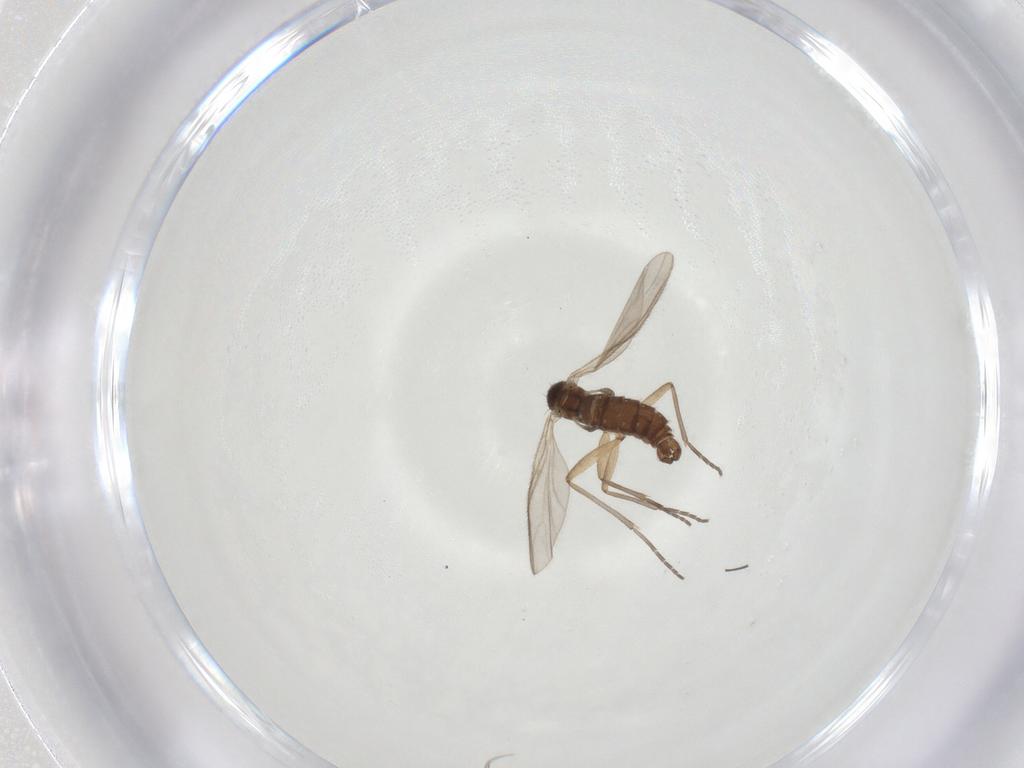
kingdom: Animalia
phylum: Arthropoda
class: Insecta
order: Diptera
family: Sciaridae
